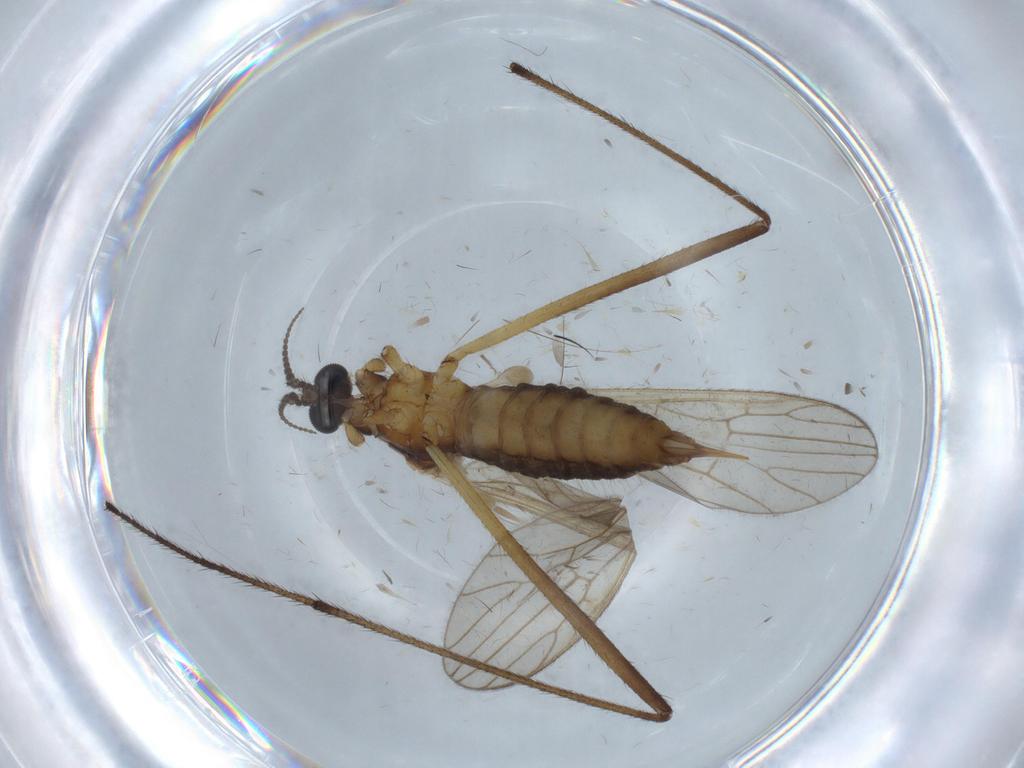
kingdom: Animalia
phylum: Arthropoda
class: Insecta
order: Diptera
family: Agromyzidae
